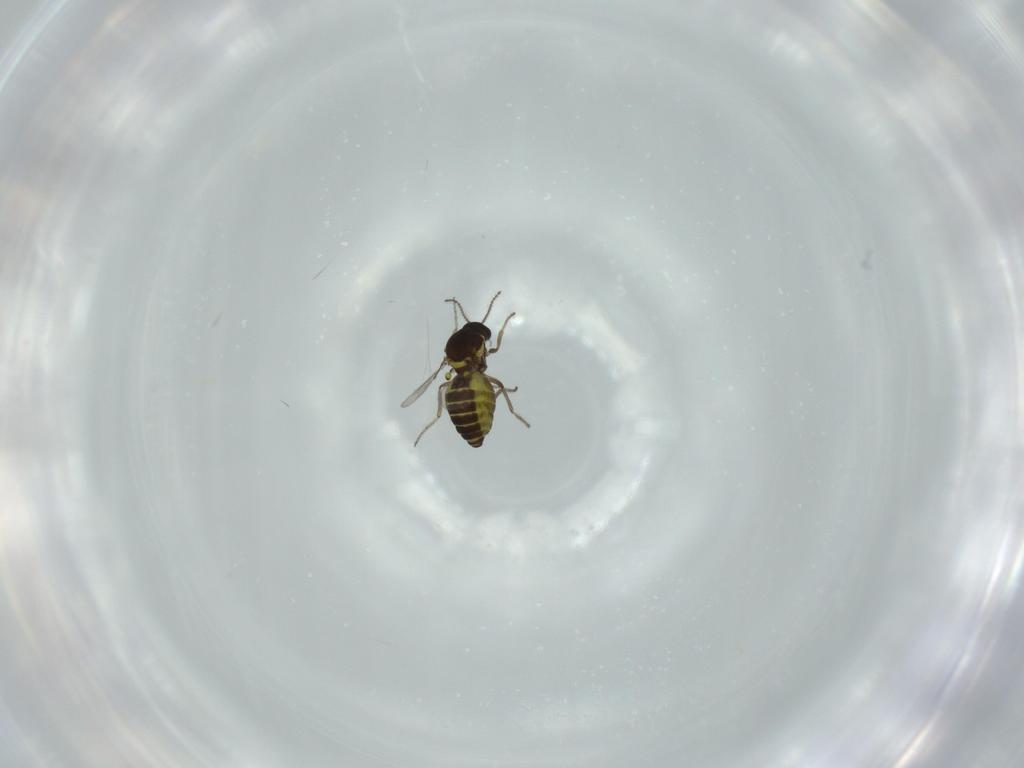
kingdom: Animalia
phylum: Arthropoda
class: Insecta
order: Diptera
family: Ceratopogonidae
